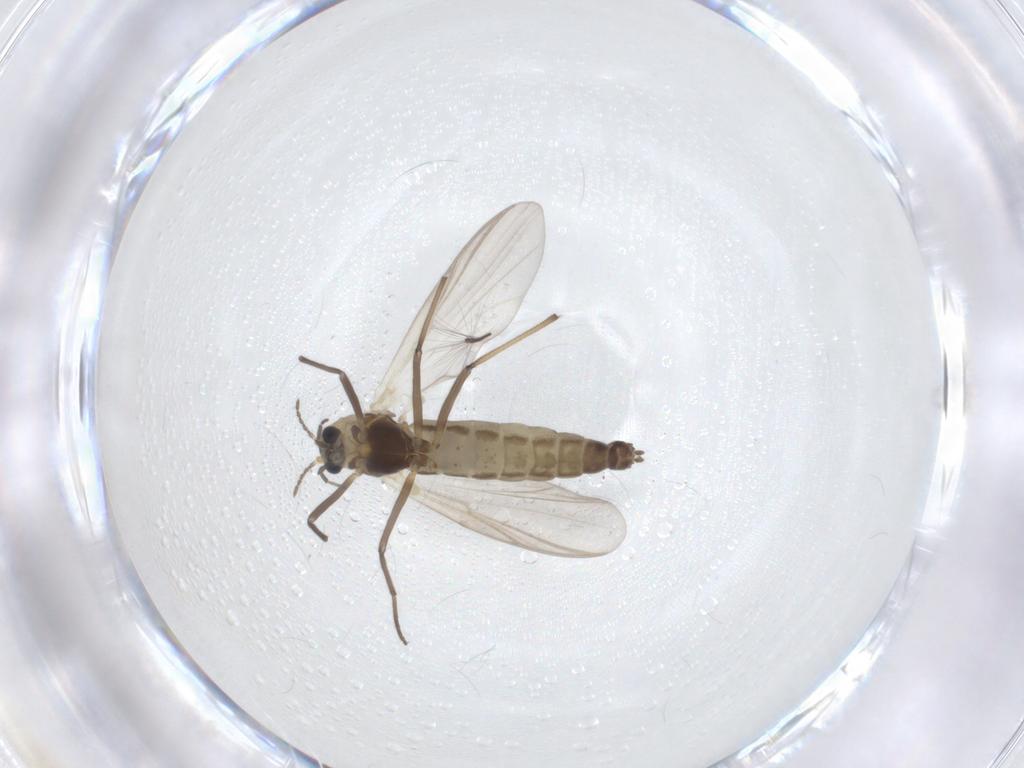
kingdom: Animalia
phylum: Arthropoda
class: Insecta
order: Diptera
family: Chironomidae
